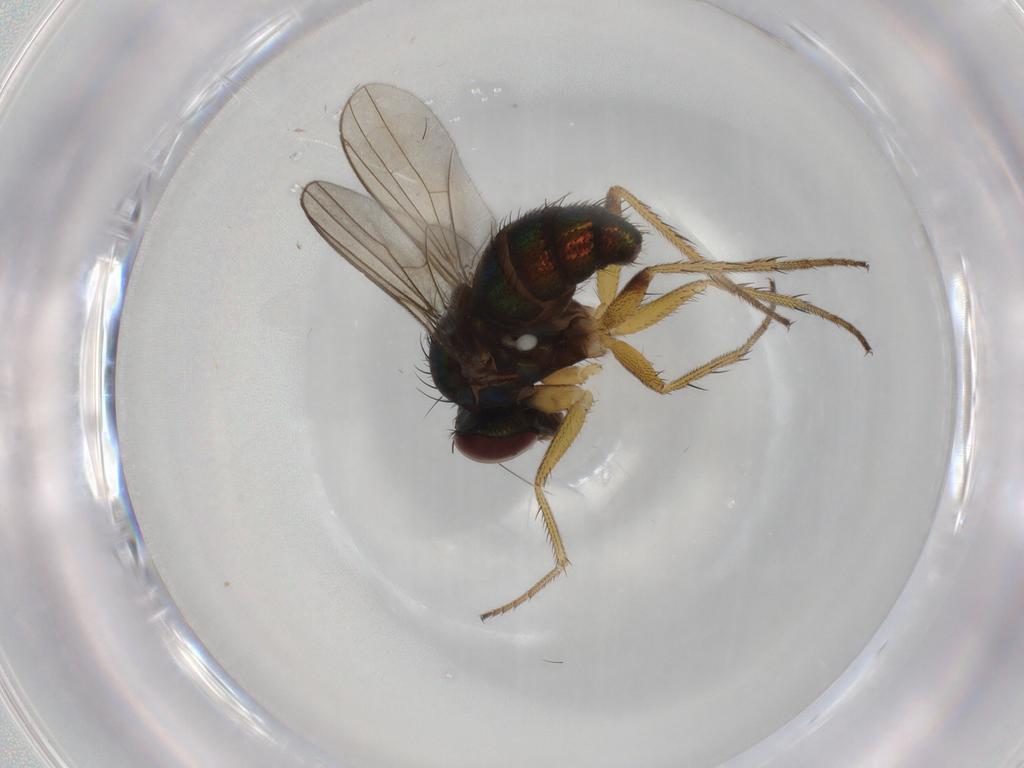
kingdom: Animalia
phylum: Arthropoda
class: Insecta
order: Diptera
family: Dolichopodidae
